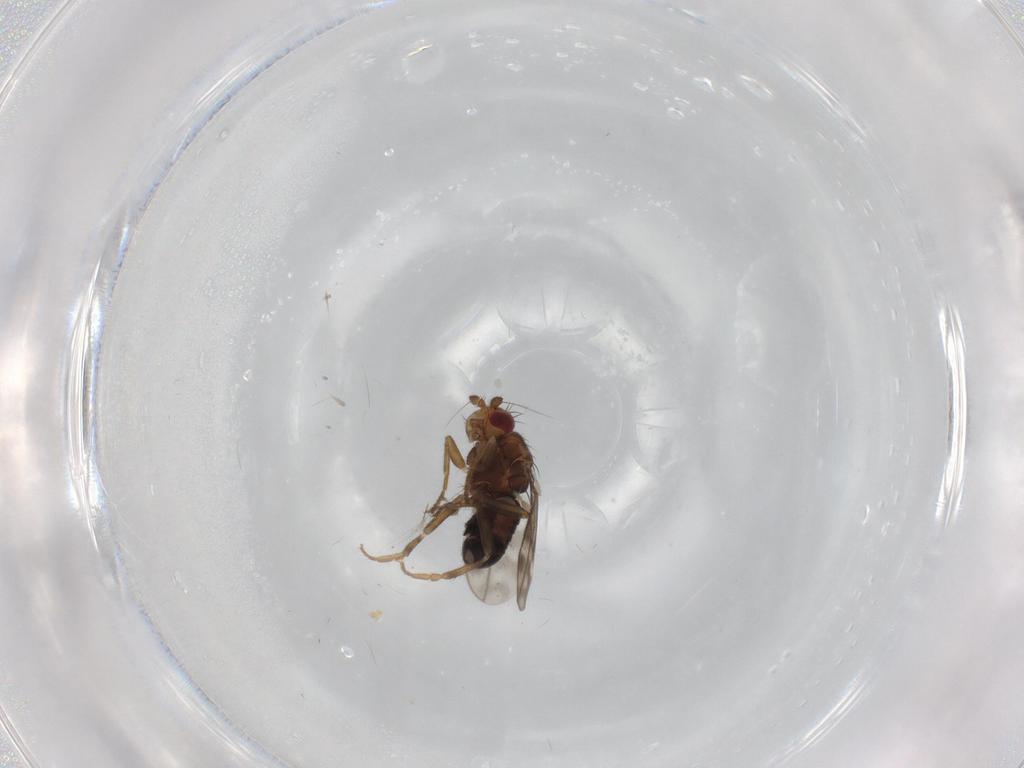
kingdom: Animalia
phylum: Arthropoda
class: Insecta
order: Diptera
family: Sphaeroceridae
